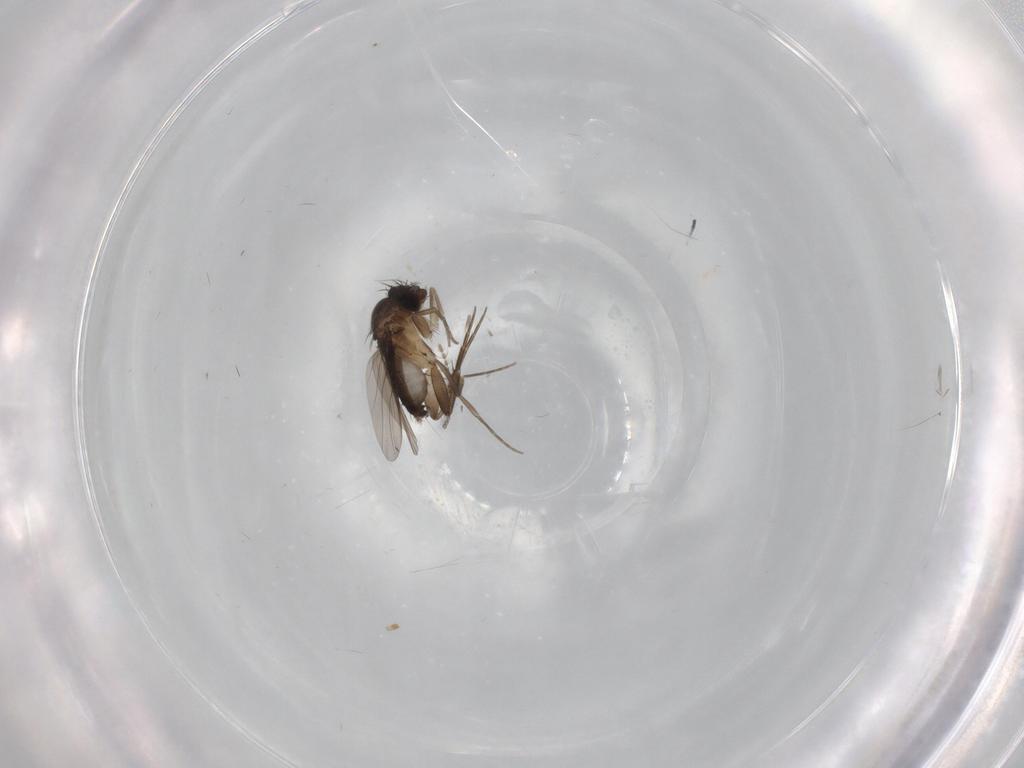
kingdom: Animalia
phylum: Arthropoda
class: Insecta
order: Diptera
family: Phoridae
